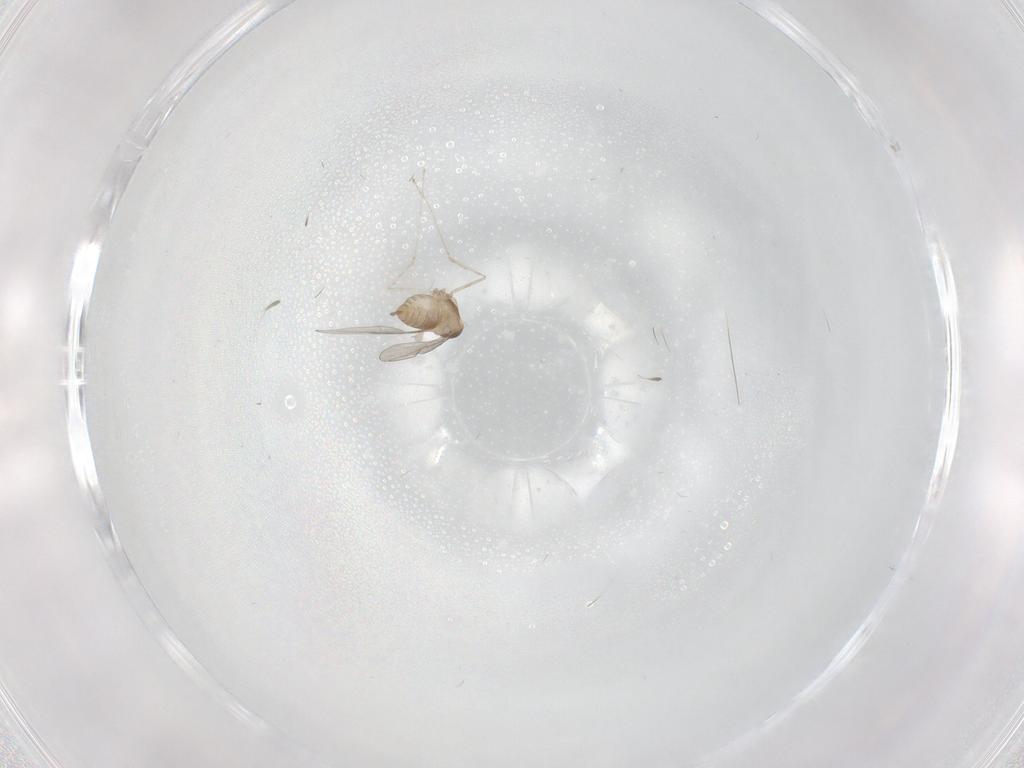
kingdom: Animalia
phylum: Arthropoda
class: Insecta
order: Diptera
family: Cecidomyiidae
